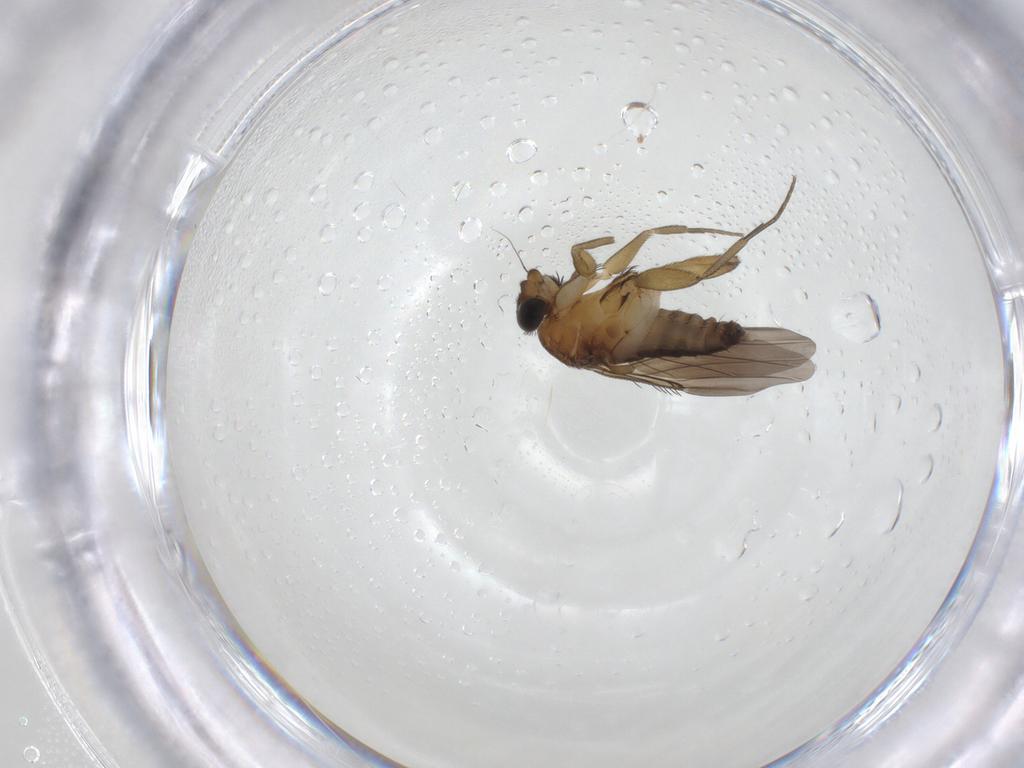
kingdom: Animalia
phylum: Arthropoda
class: Insecta
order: Diptera
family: Phoridae
